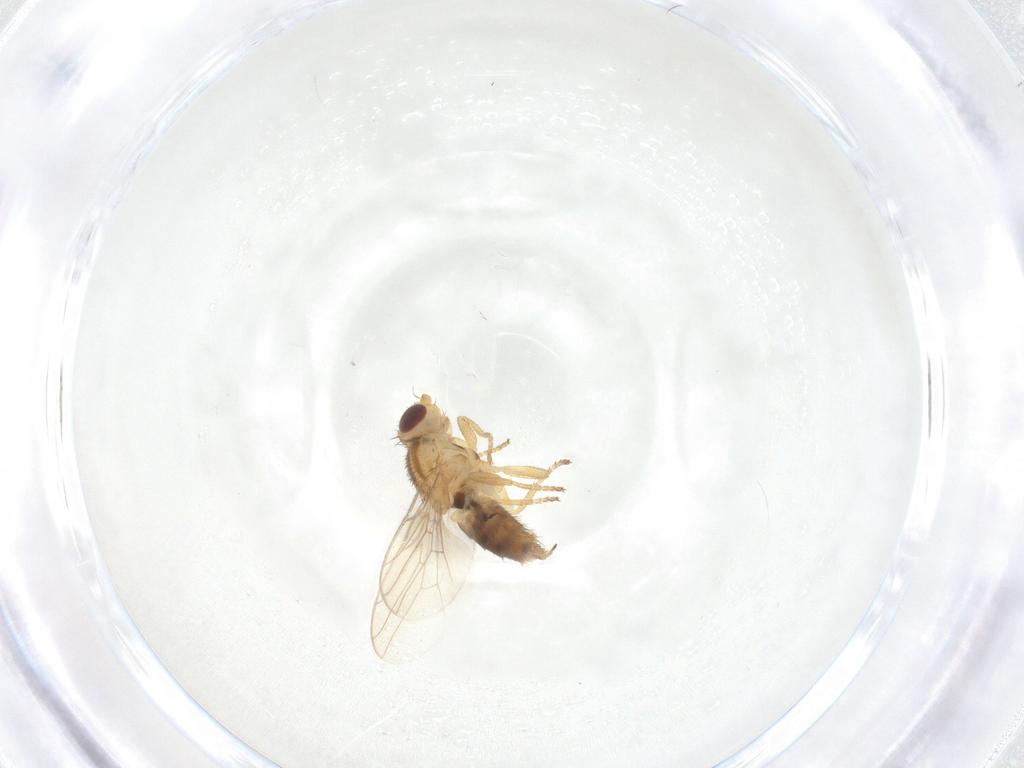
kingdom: Animalia
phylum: Arthropoda
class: Insecta
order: Diptera
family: Chloropidae
